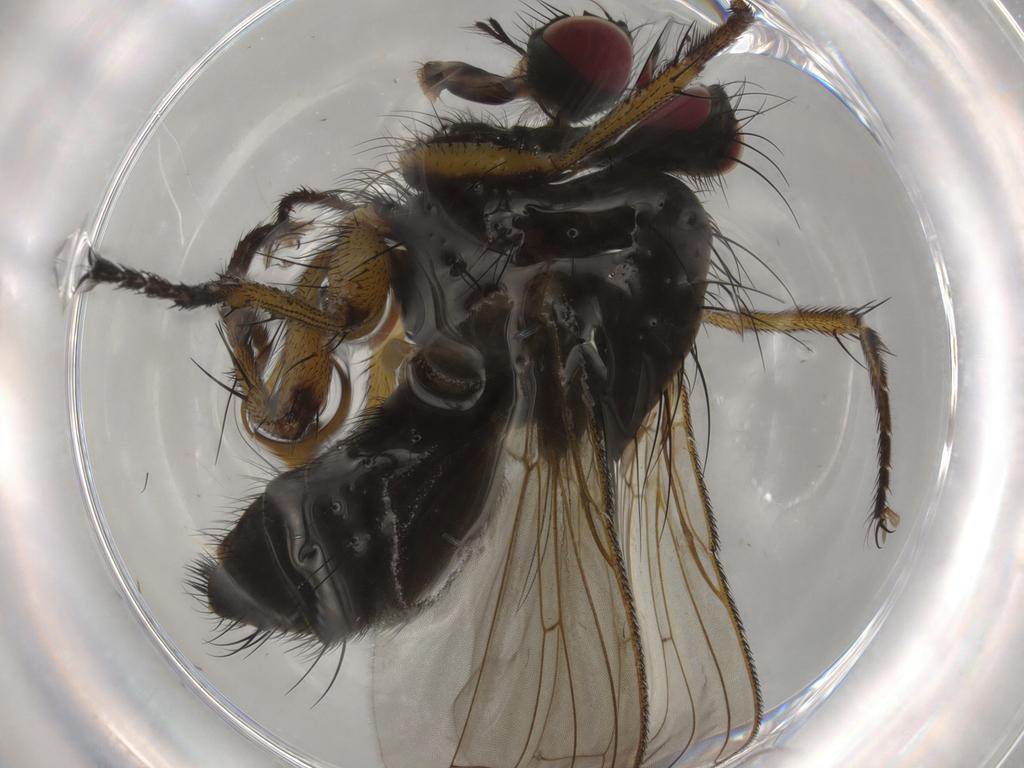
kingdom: Animalia
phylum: Arthropoda
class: Insecta
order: Diptera
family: Muscidae
